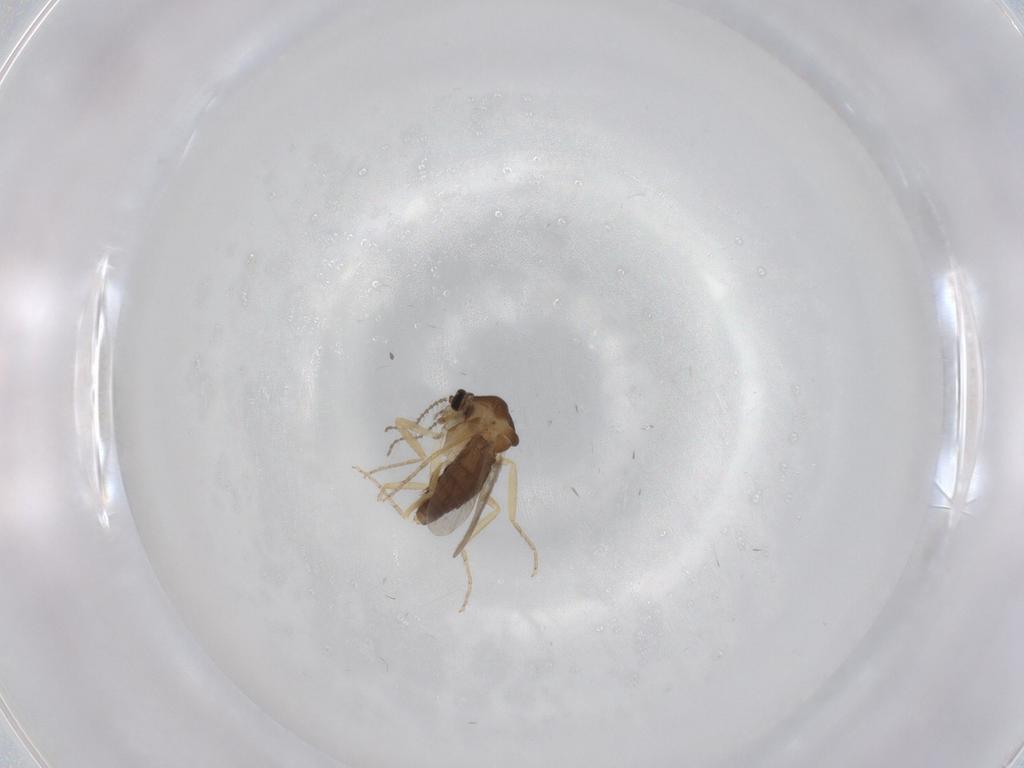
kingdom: Animalia
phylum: Arthropoda
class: Insecta
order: Diptera
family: Ceratopogonidae
